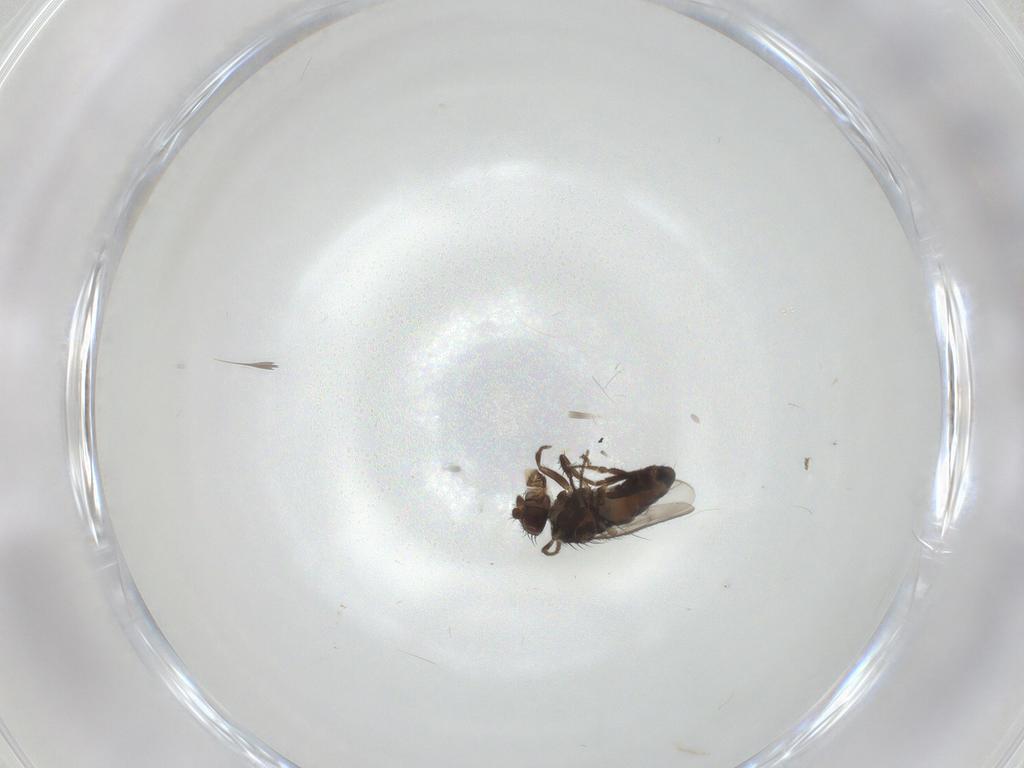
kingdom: Animalia
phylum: Arthropoda
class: Insecta
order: Diptera
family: Sphaeroceridae
